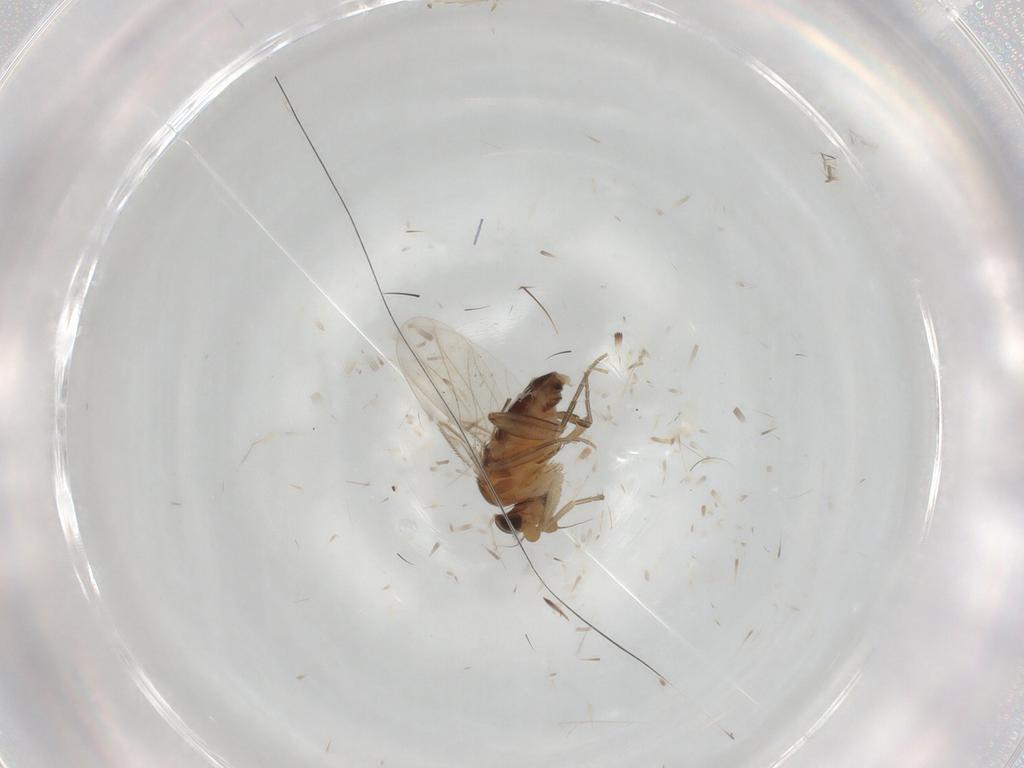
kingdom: Animalia
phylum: Arthropoda
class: Insecta
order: Diptera
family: Phoridae
